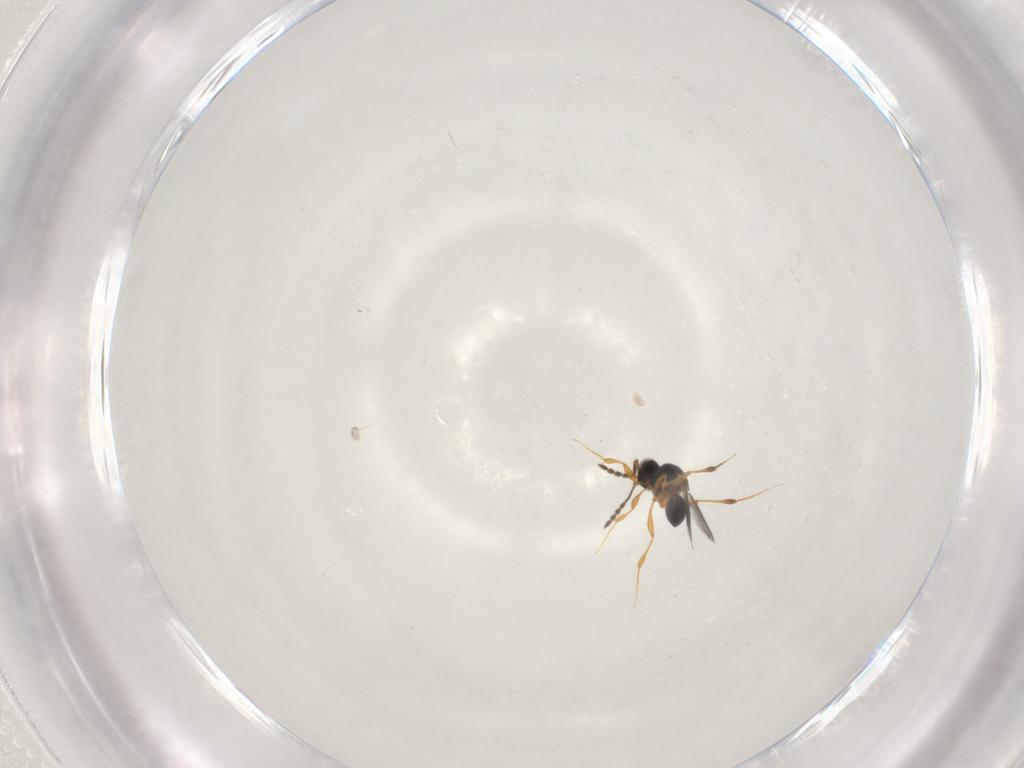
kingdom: Animalia
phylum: Arthropoda
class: Insecta
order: Hymenoptera
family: Platygastridae
